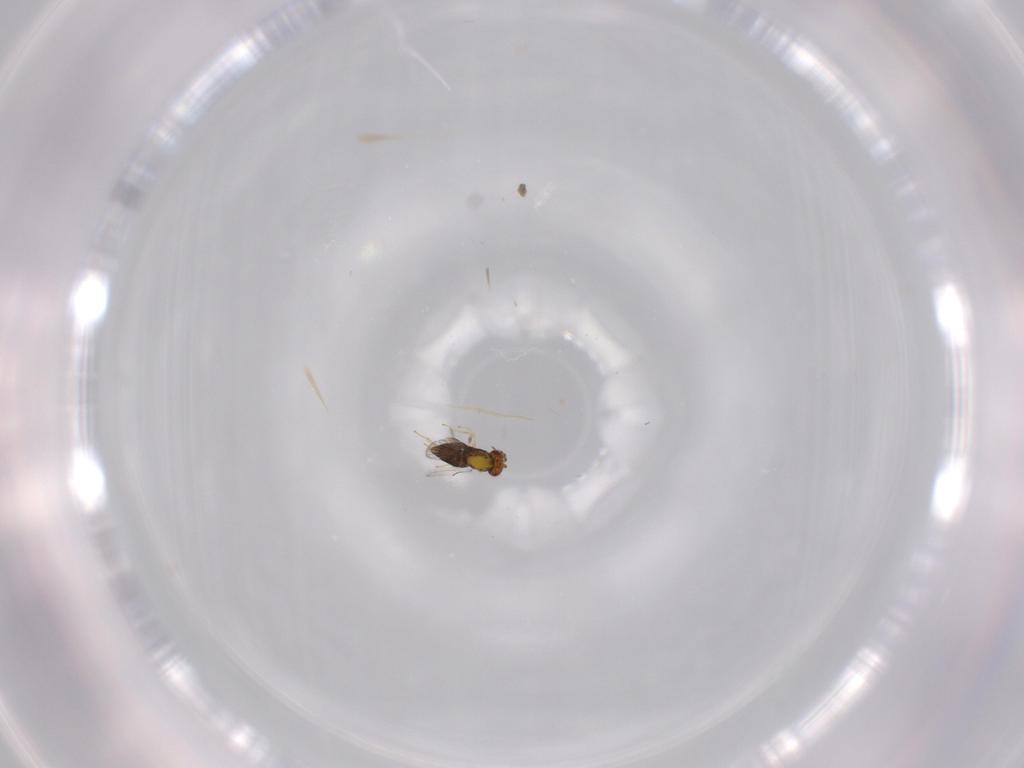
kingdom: Animalia
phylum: Arthropoda
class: Insecta
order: Hymenoptera
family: Trichogrammatidae
